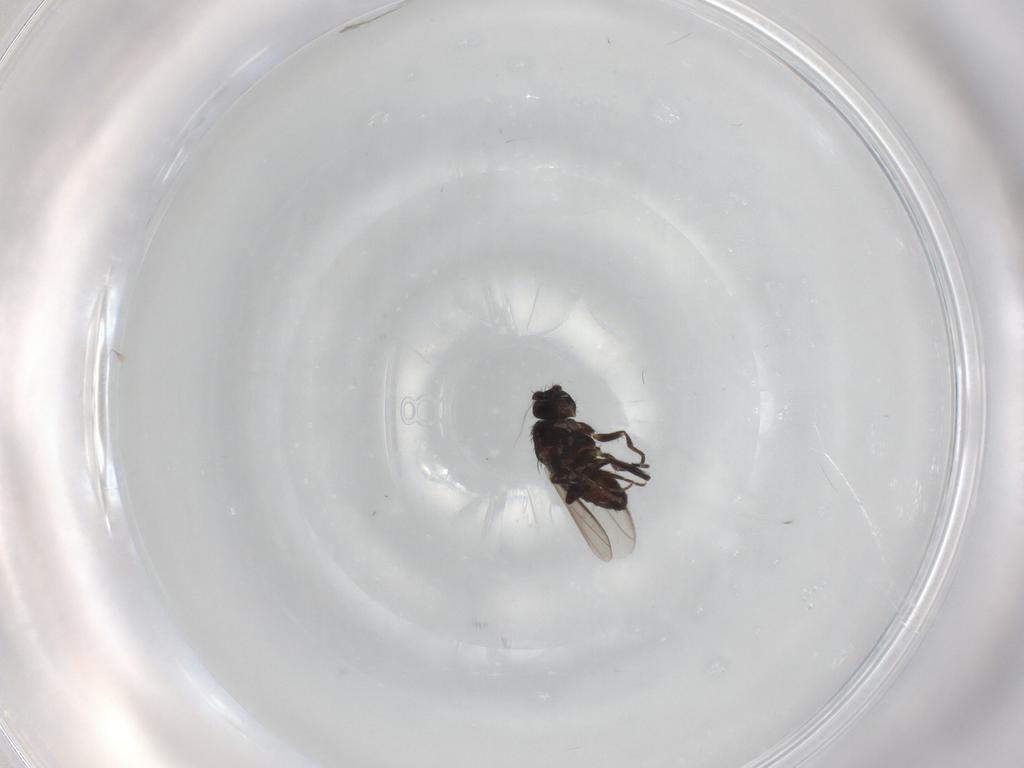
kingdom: Animalia
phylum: Arthropoda
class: Insecta
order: Diptera
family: Sphaeroceridae
